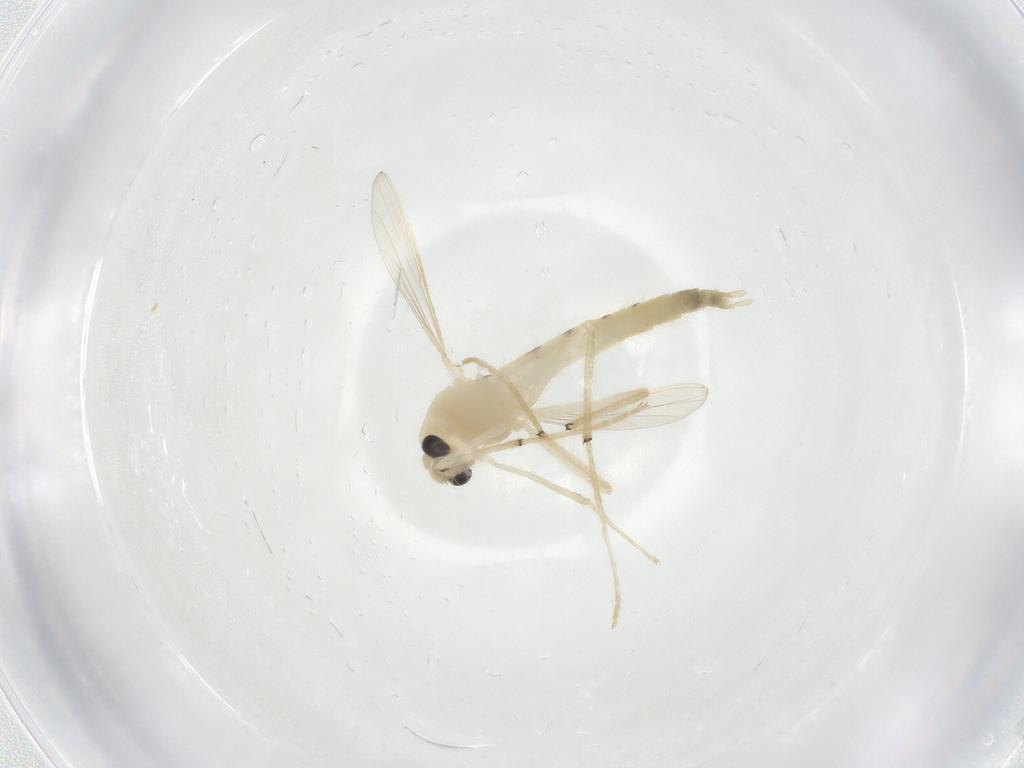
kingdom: Animalia
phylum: Arthropoda
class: Insecta
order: Diptera
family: Chironomidae
